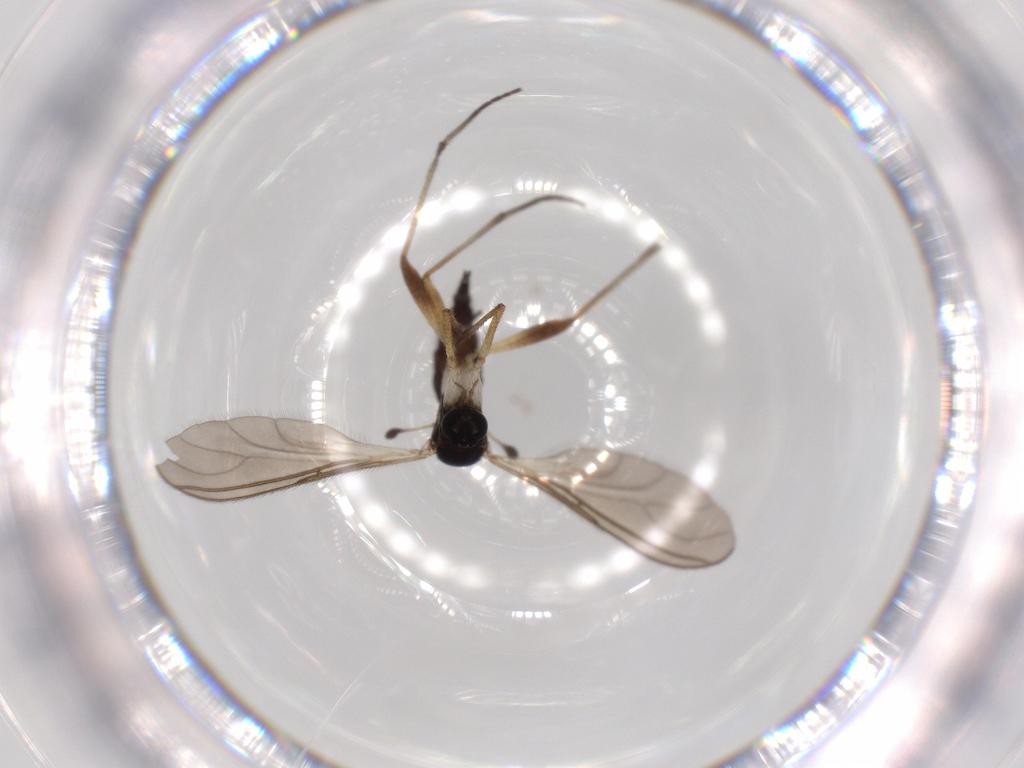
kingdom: Animalia
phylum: Arthropoda
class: Insecta
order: Diptera
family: Sciaridae
